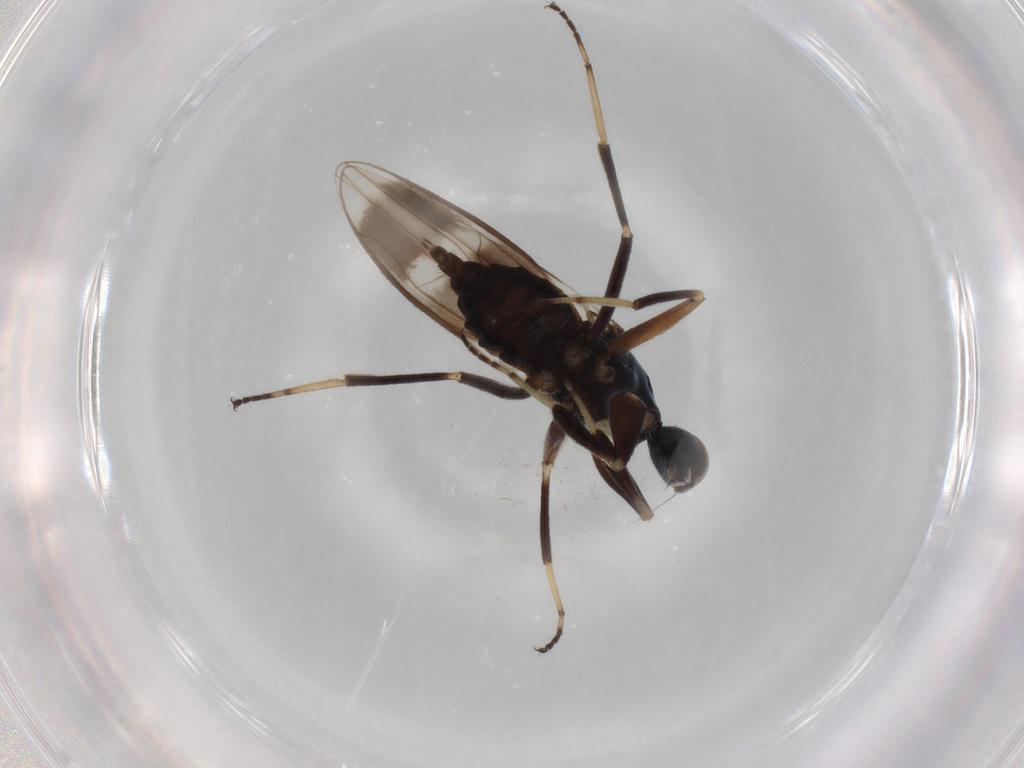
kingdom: Animalia
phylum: Arthropoda
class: Insecta
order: Diptera
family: Hybotidae
